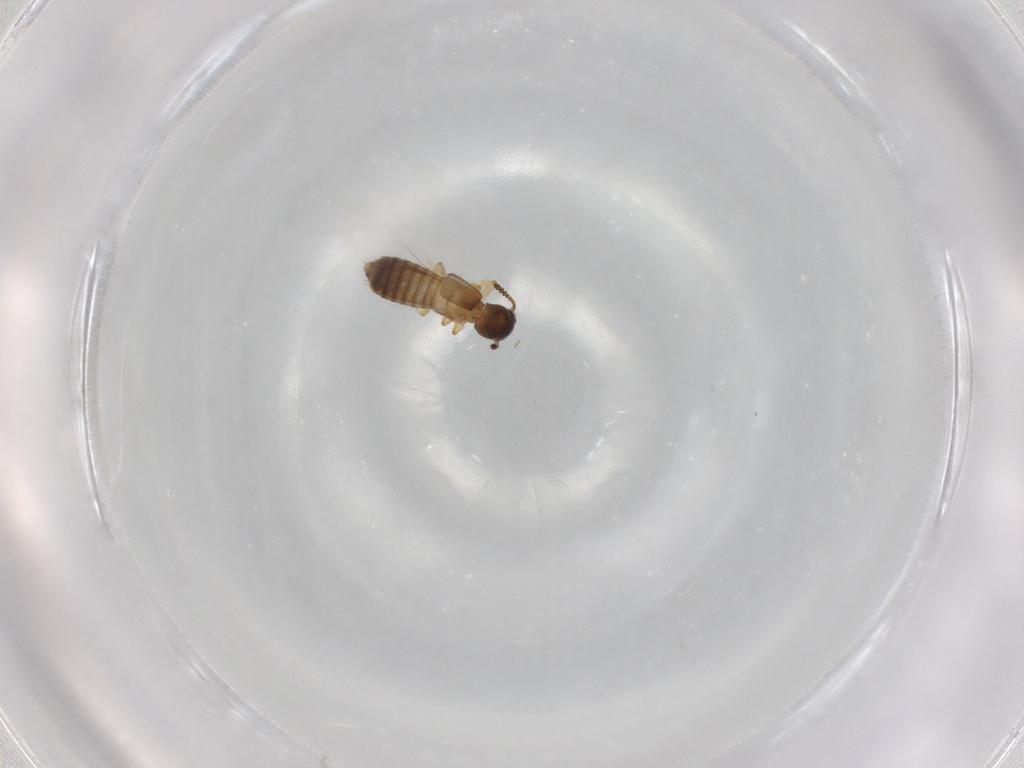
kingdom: Animalia
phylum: Arthropoda
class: Insecta
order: Coleoptera
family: Staphylinidae
